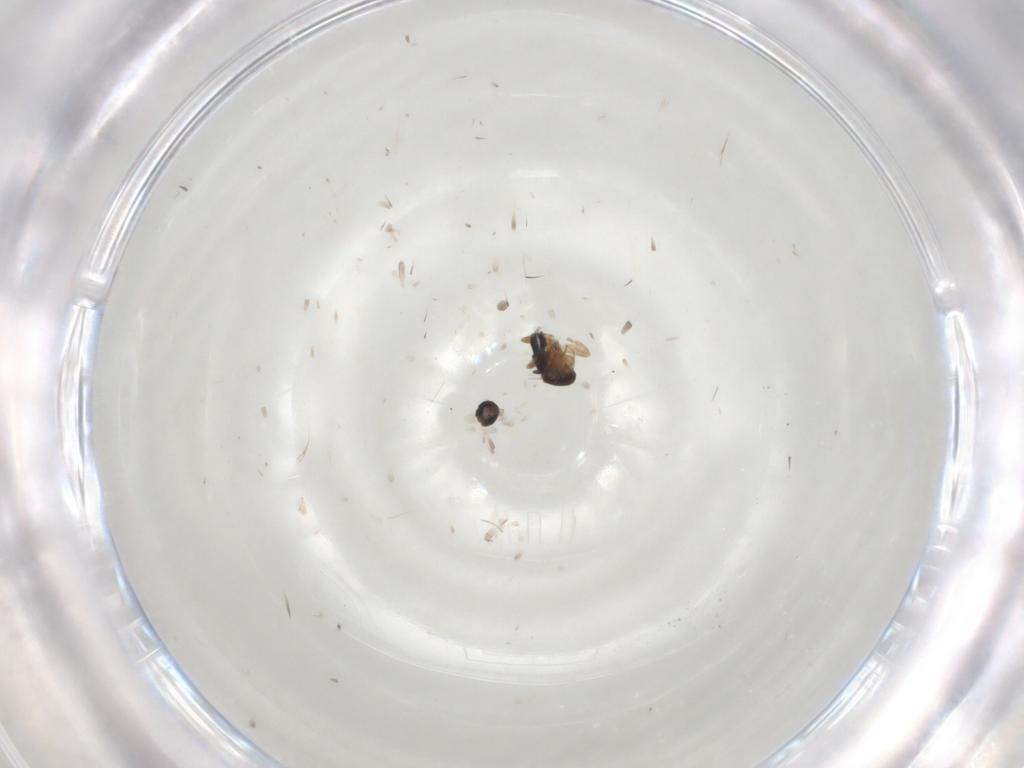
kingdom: Animalia
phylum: Arthropoda
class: Insecta
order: Diptera
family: Phoridae
